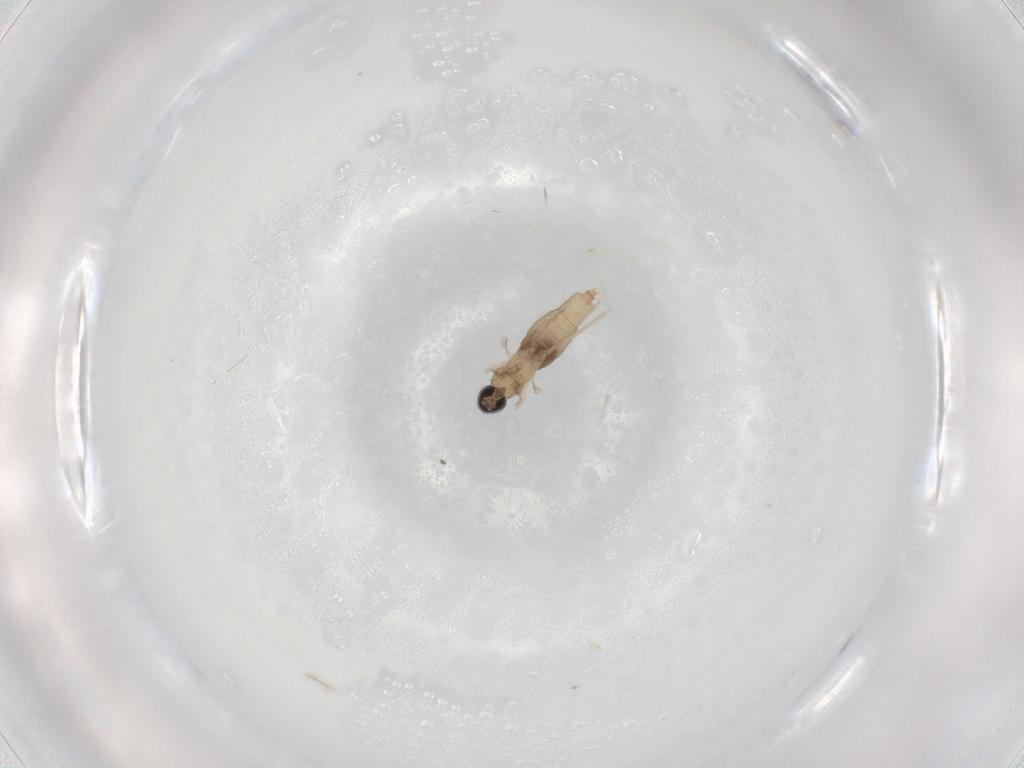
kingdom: Animalia
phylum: Arthropoda
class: Insecta
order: Diptera
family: Cecidomyiidae
